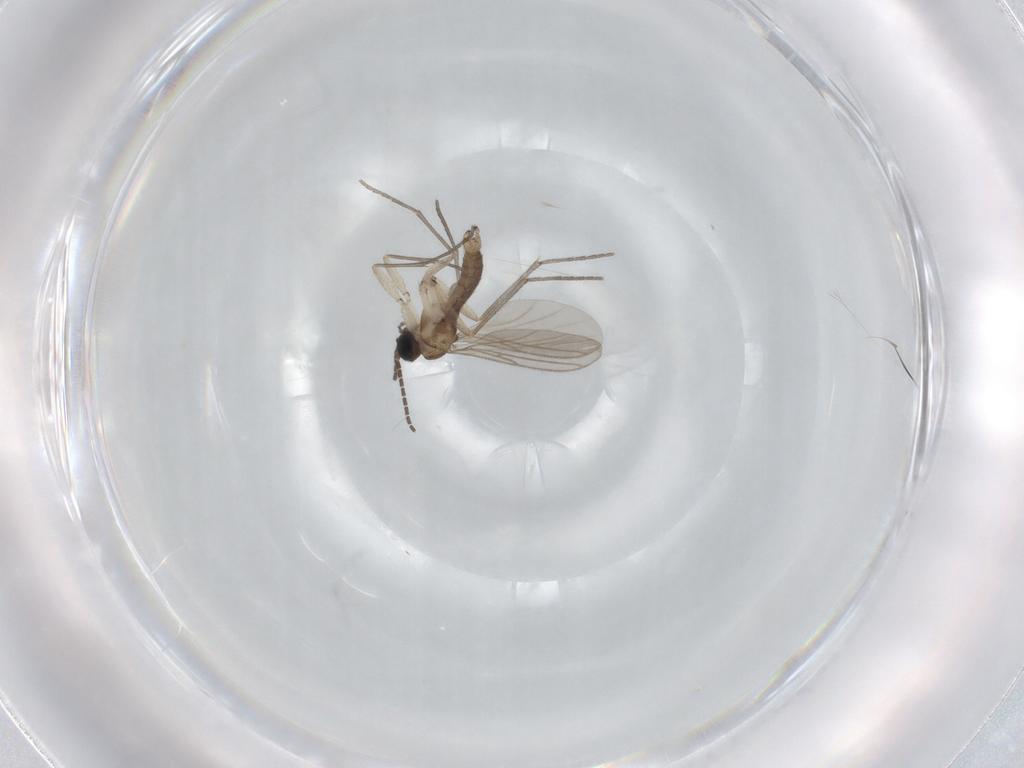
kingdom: Animalia
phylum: Arthropoda
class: Insecta
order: Diptera
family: Sciaridae
